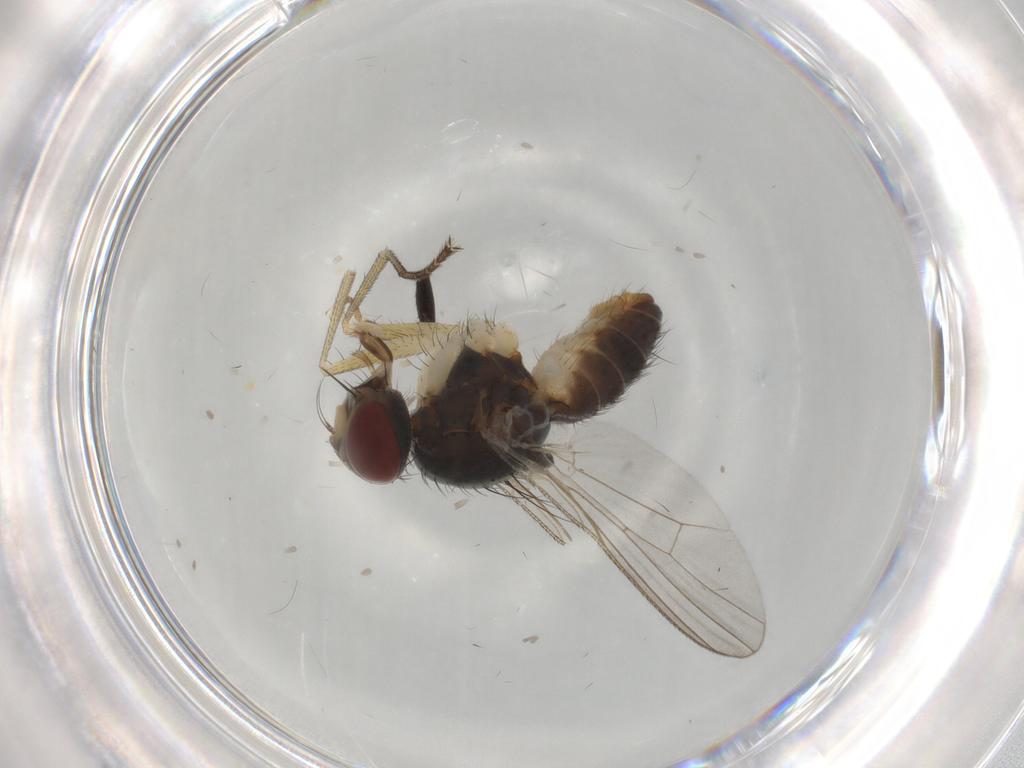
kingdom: Animalia
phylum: Arthropoda
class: Insecta
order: Diptera
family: Muscidae
